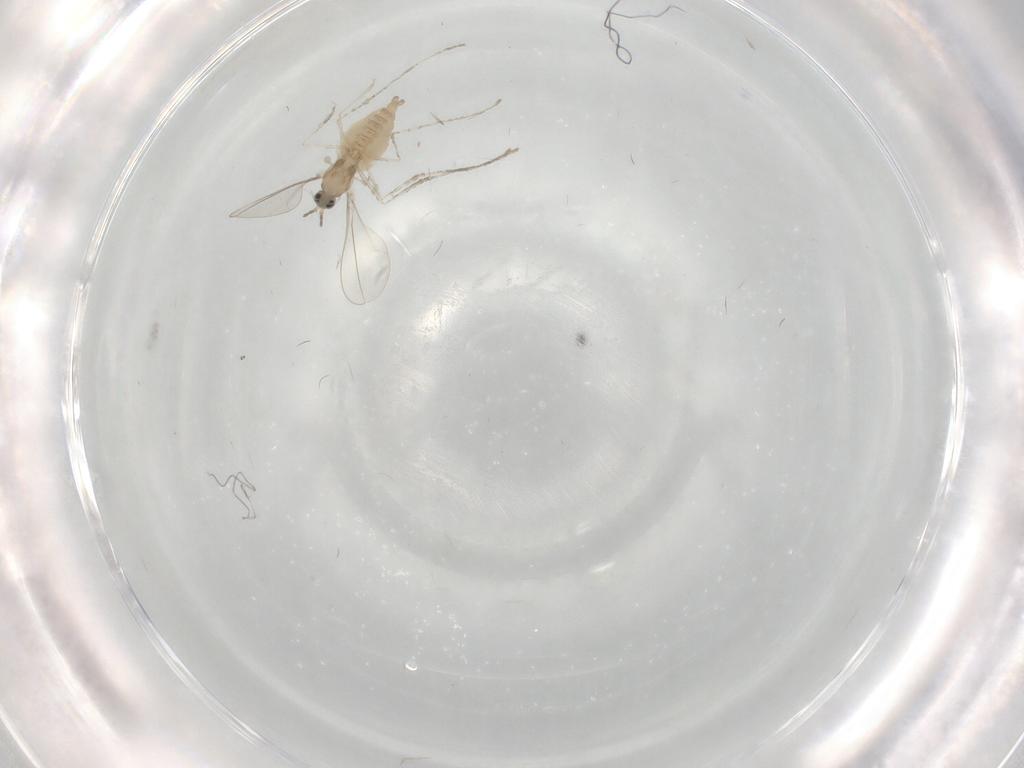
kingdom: Animalia
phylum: Arthropoda
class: Insecta
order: Diptera
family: Cecidomyiidae
